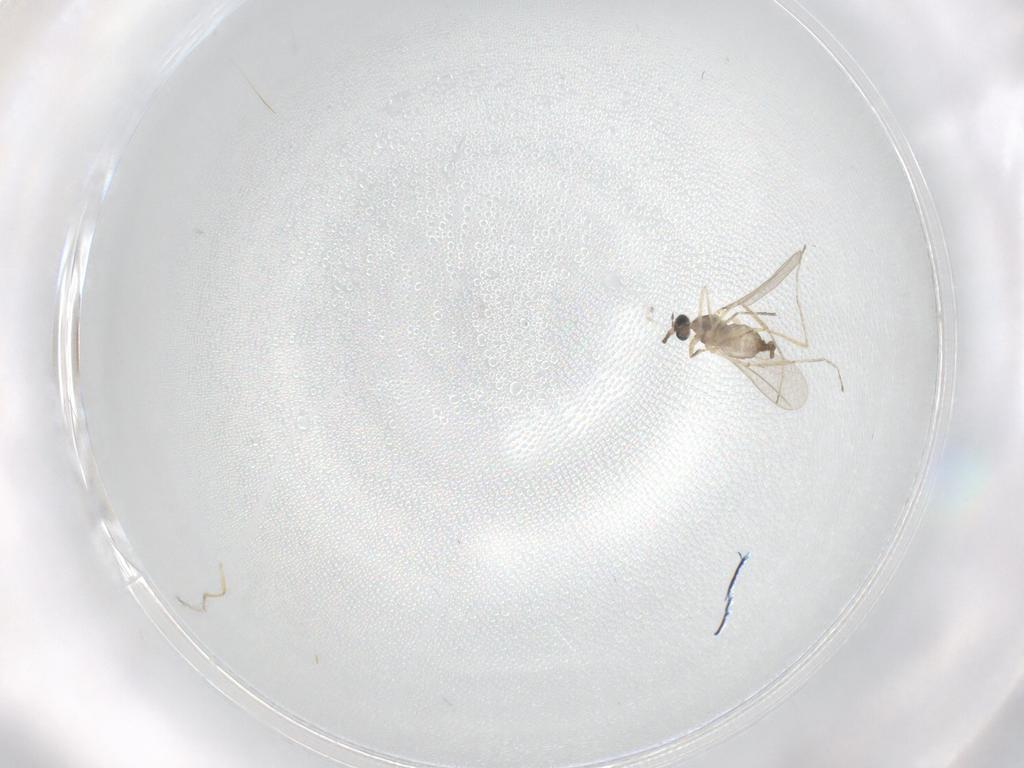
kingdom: Animalia
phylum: Arthropoda
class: Insecta
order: Diptera
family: Cecidomyiidae
